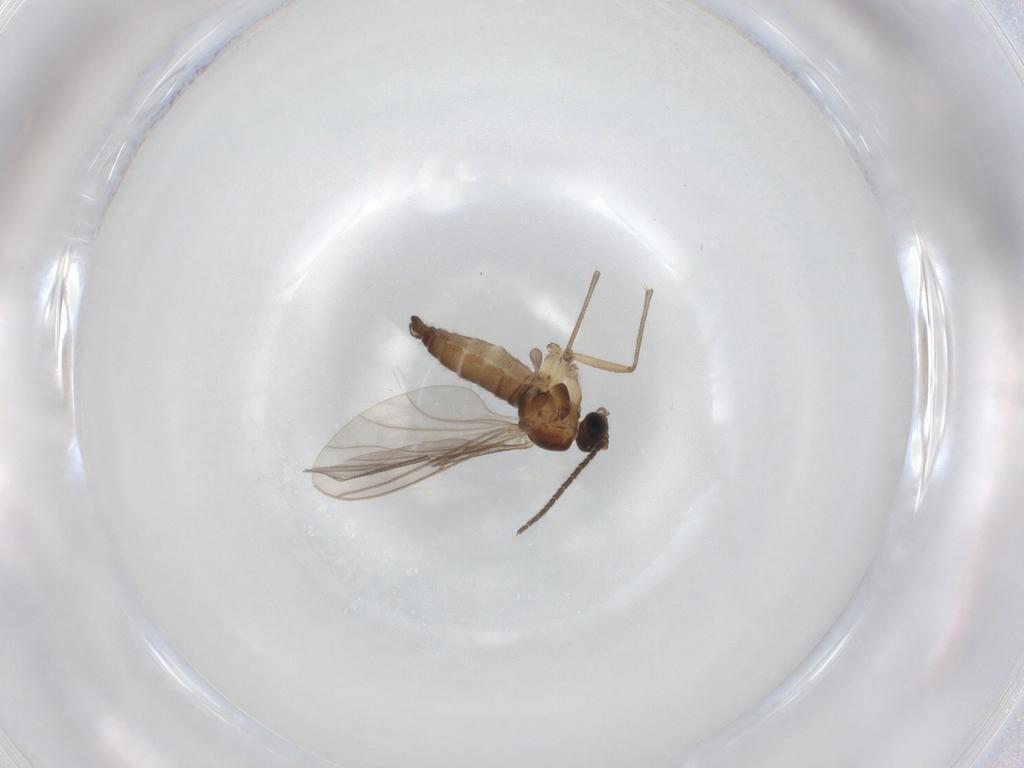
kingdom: Animalia
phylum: Arthropoda
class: Insecta
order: Diptera
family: Sciaridae
